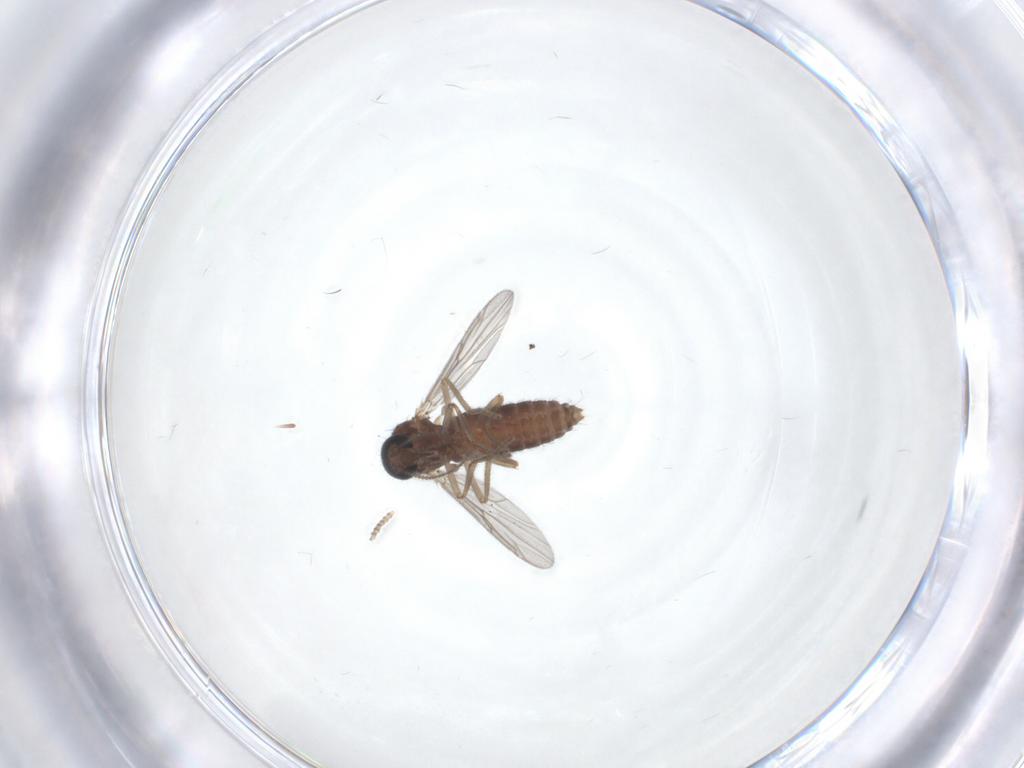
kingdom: Animalia
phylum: Arthropoda
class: Insecta
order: Diptera
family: Ceratopogonidae
